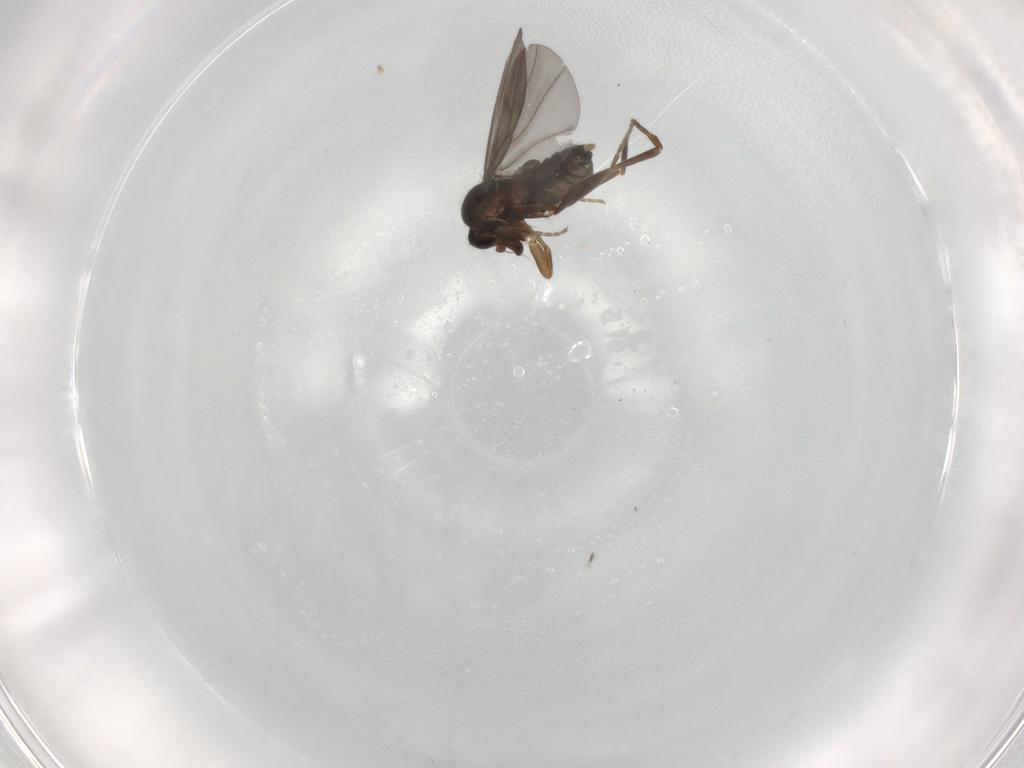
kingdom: Animalia
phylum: Arthropoda
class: Insecta
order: Diptera
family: Phoridae
